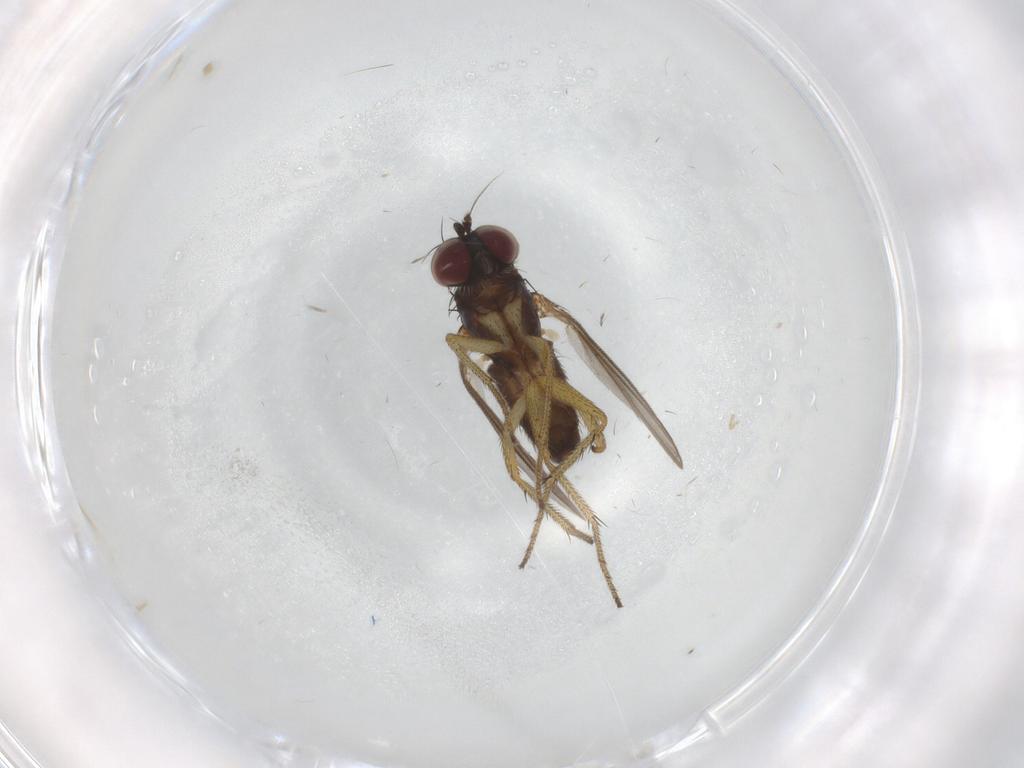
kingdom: Animalia
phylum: Arthropoda
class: Insecta
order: Diptera
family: Dolichopodidae
